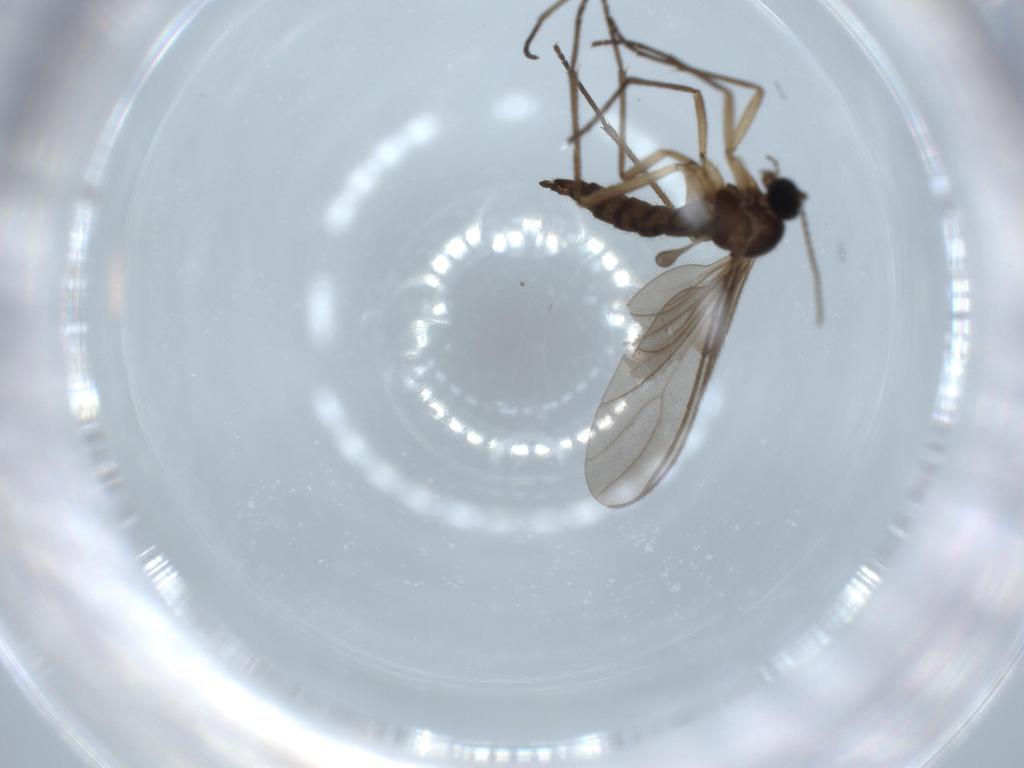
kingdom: Animalia
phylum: Arthropoda
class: Insecta
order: Diptera
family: Sciaridae
